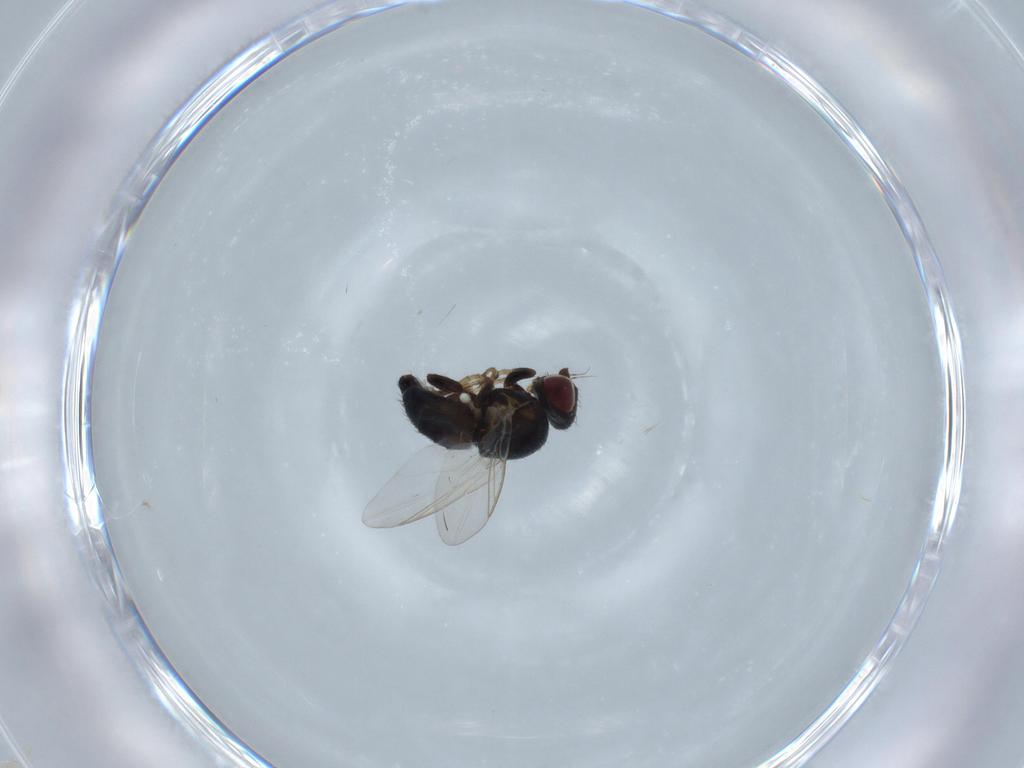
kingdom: Animalia
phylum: Arthropoda
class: Insecta
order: Diptera
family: Agromyzidae
